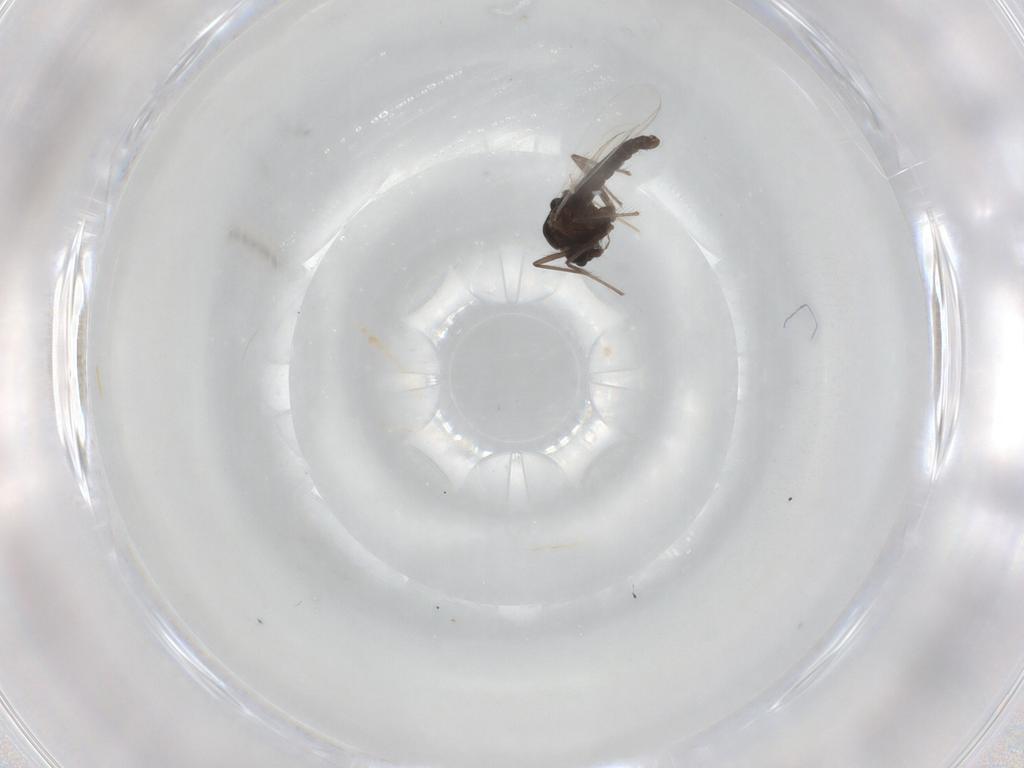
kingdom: Animalia
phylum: Arthropoda
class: Insecta
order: Diptera
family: Chironomidae
